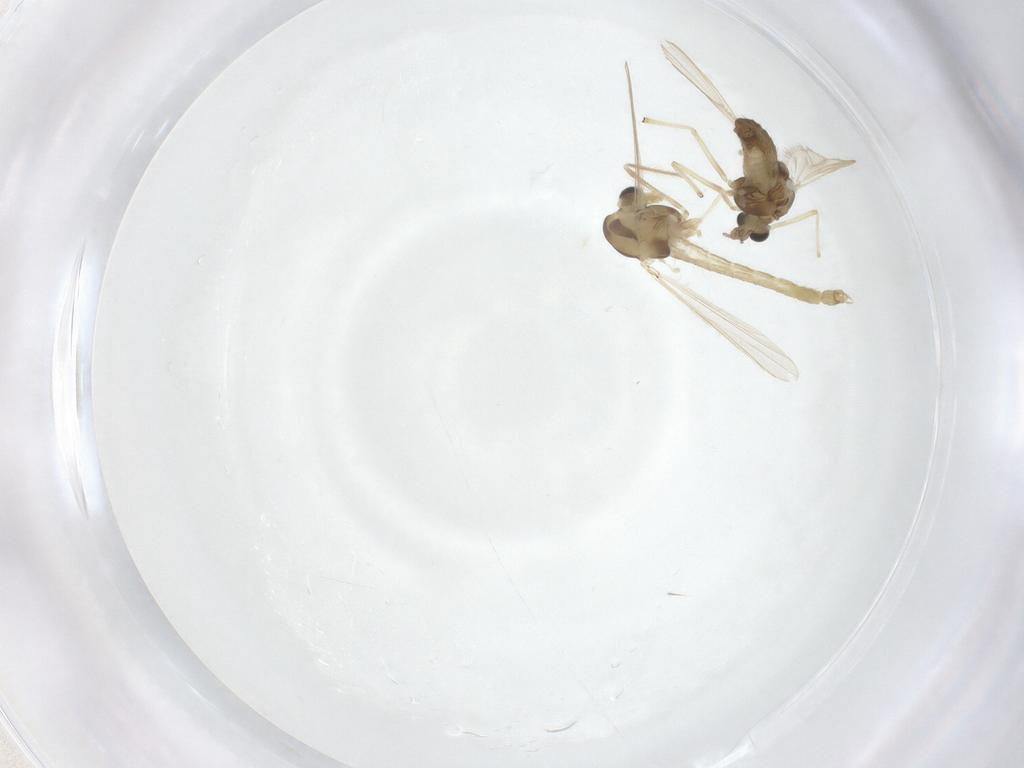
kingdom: Animalia
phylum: Arthropoda
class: Insecta
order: Diptera
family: Chironomidae
